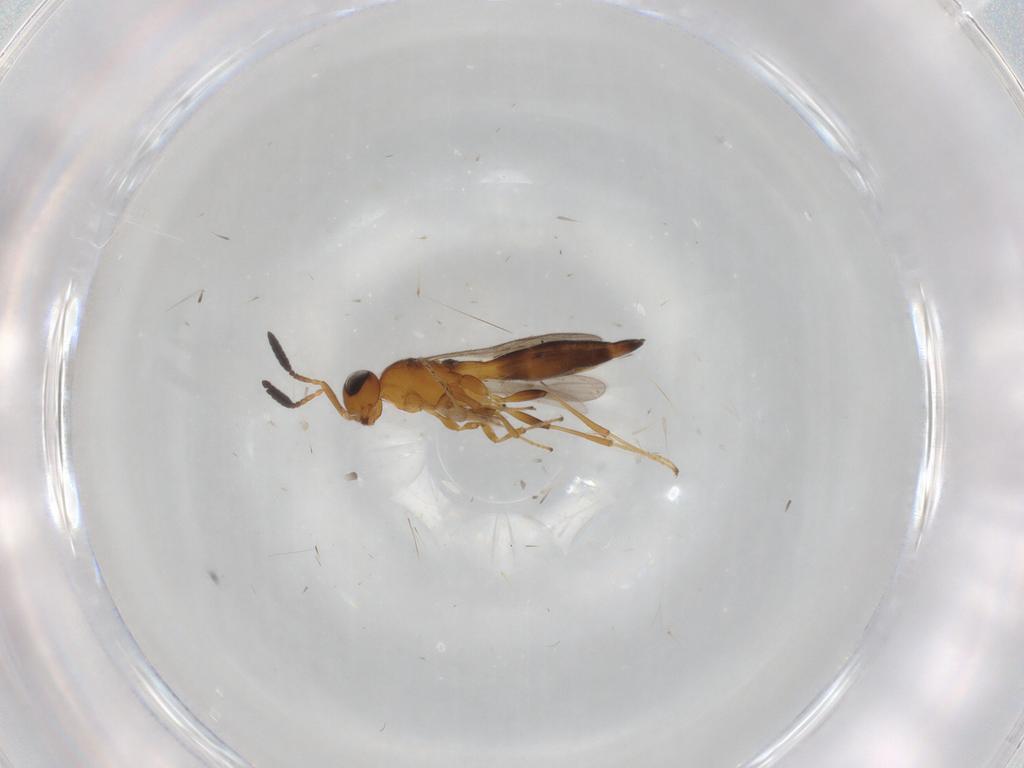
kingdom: Animalia
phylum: Arthropoda
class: Insecta
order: Hymenoptera
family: Scelionidae
